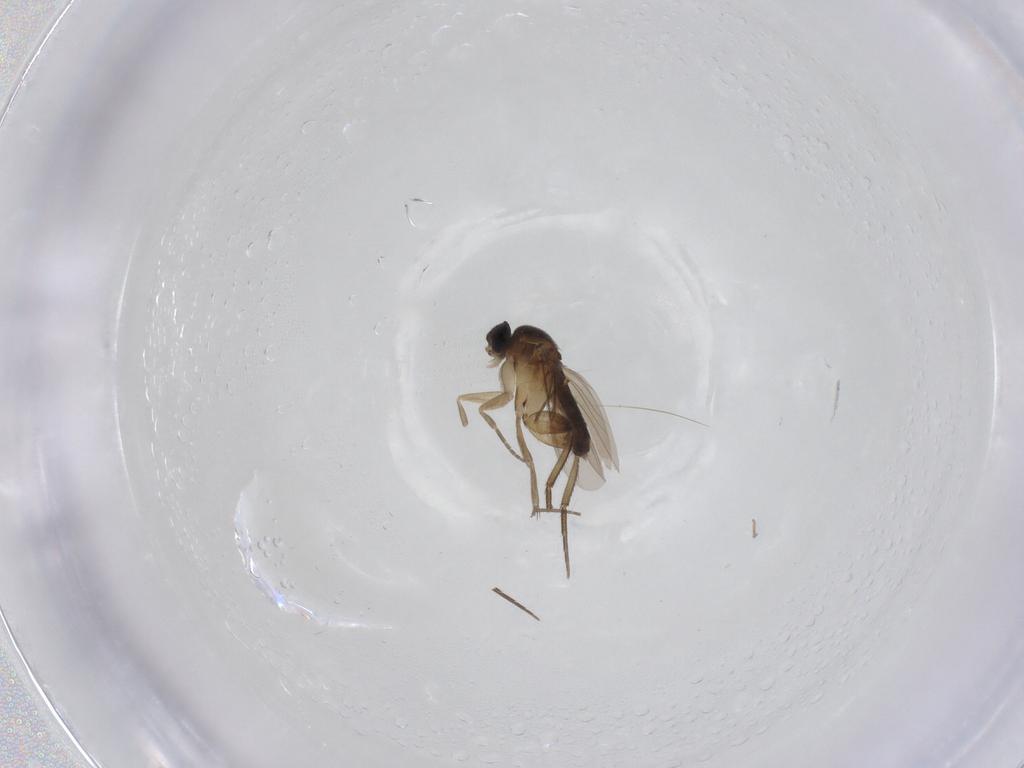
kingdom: Animalia
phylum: Arthropoda
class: Insecta
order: Diptera
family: Phoridae
